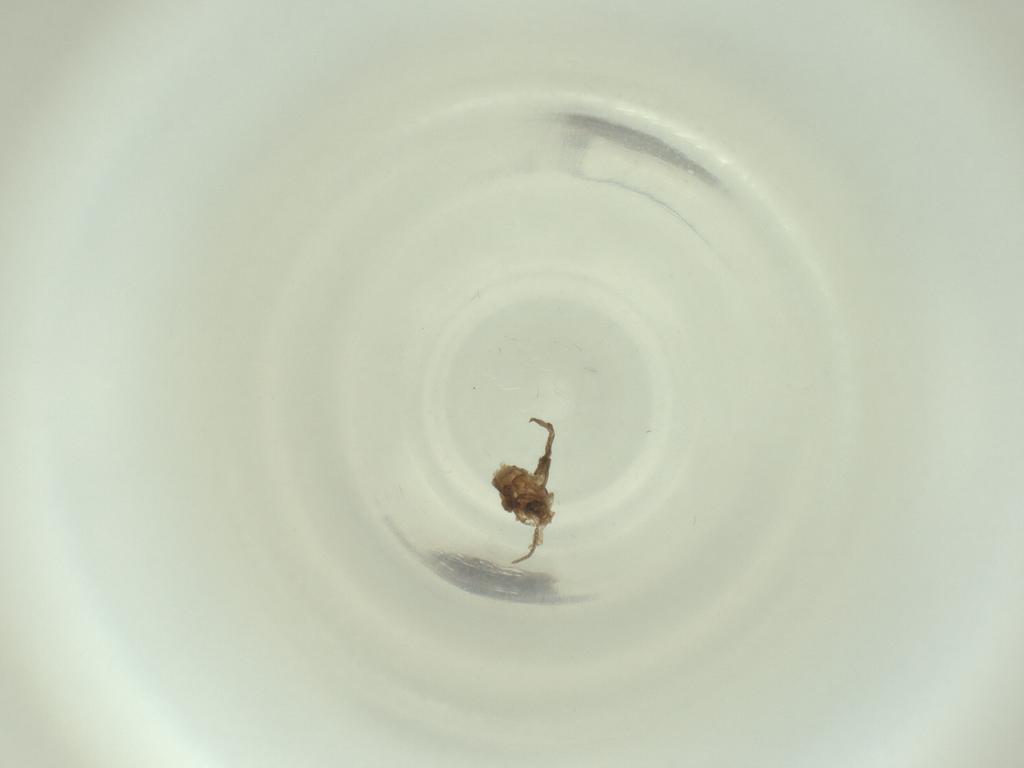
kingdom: Animalia
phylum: Arthropoda
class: Insecta
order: Diptera
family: Cecidomyiidae
